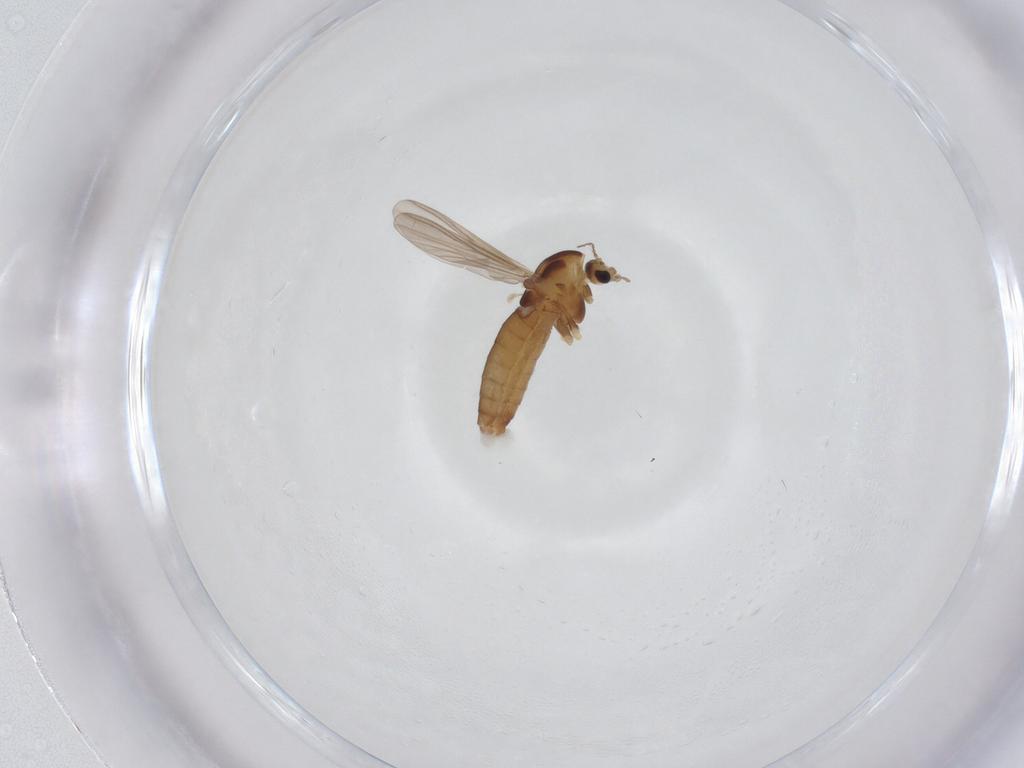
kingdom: Animalia
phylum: Arthropoda
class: Insecta
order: Diptera
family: Chironomidae
